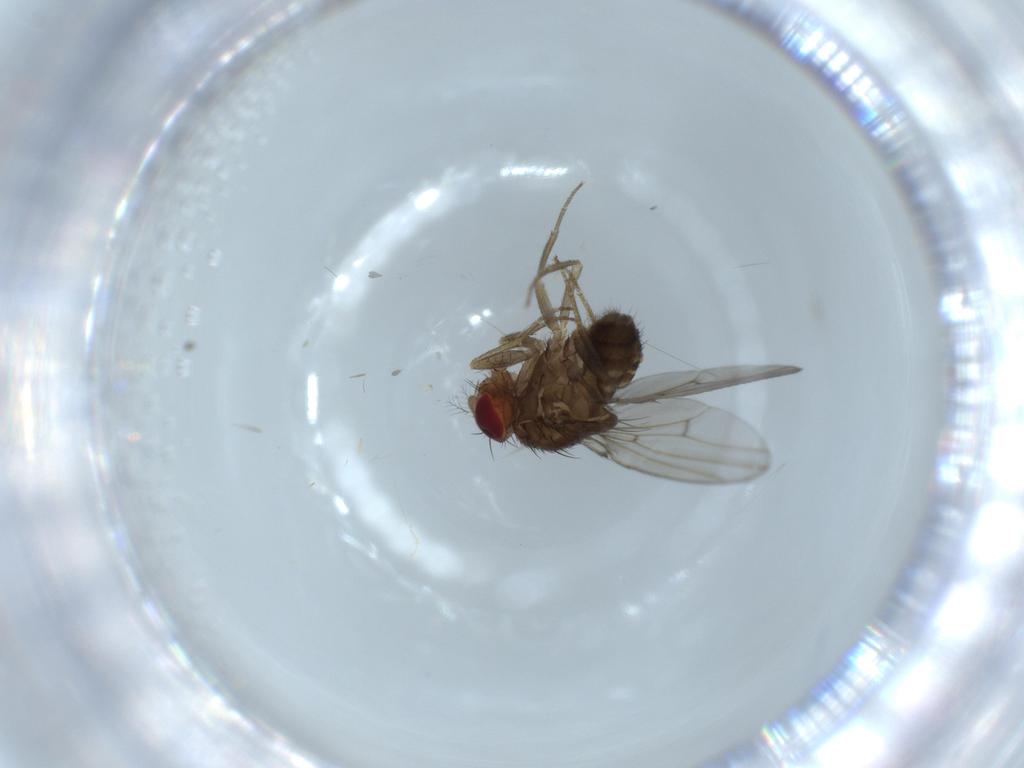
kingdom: Animalia
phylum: Arthropoda
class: Insecta
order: Diptera
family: Drosophilidae
